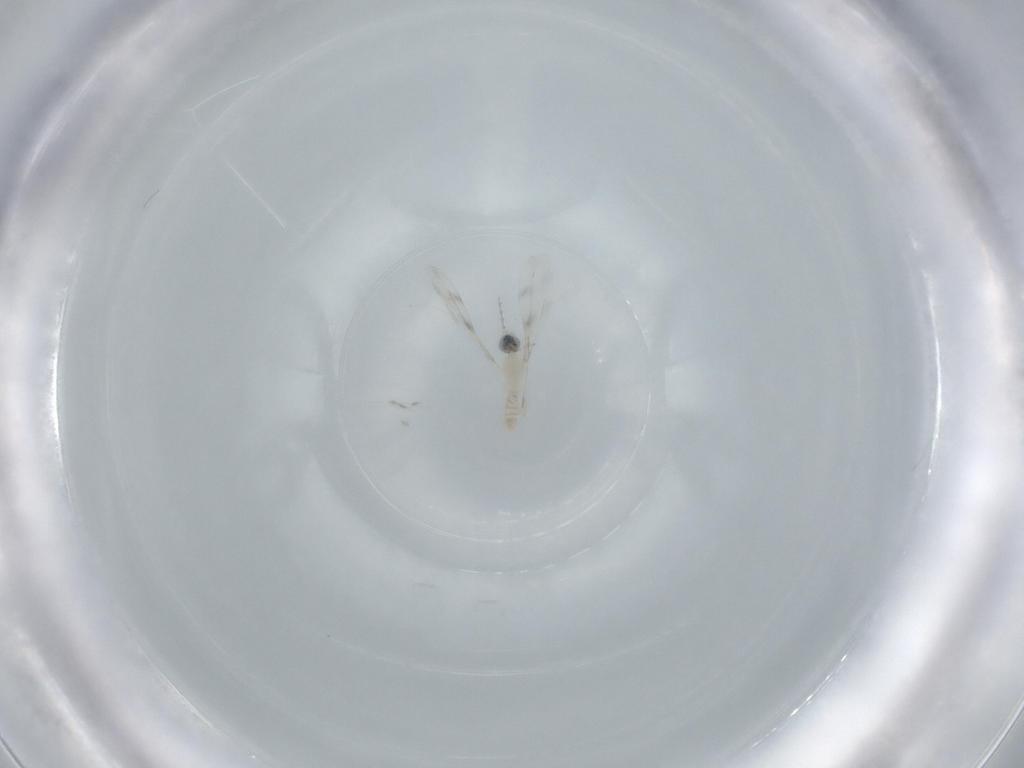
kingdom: Animalia
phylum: Arthropoda
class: Insecta
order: Diptera
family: Cecidomyiidae
